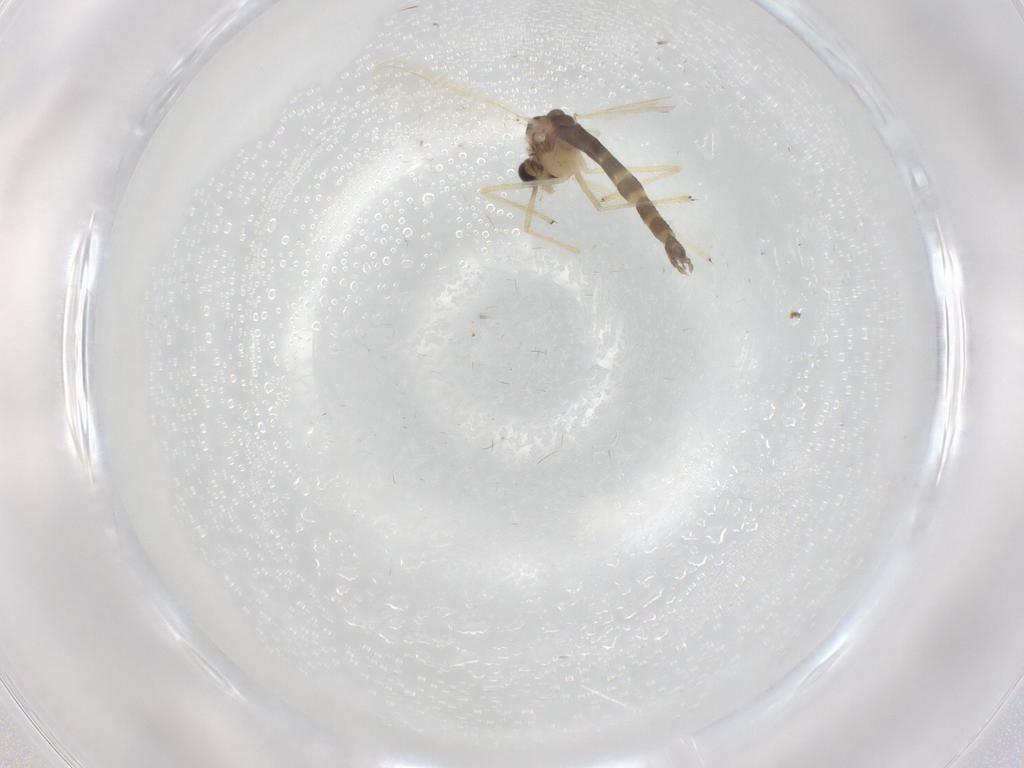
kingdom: Animalia
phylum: Arthropoda
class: Insecta
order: Diptera
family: Chironomidae
